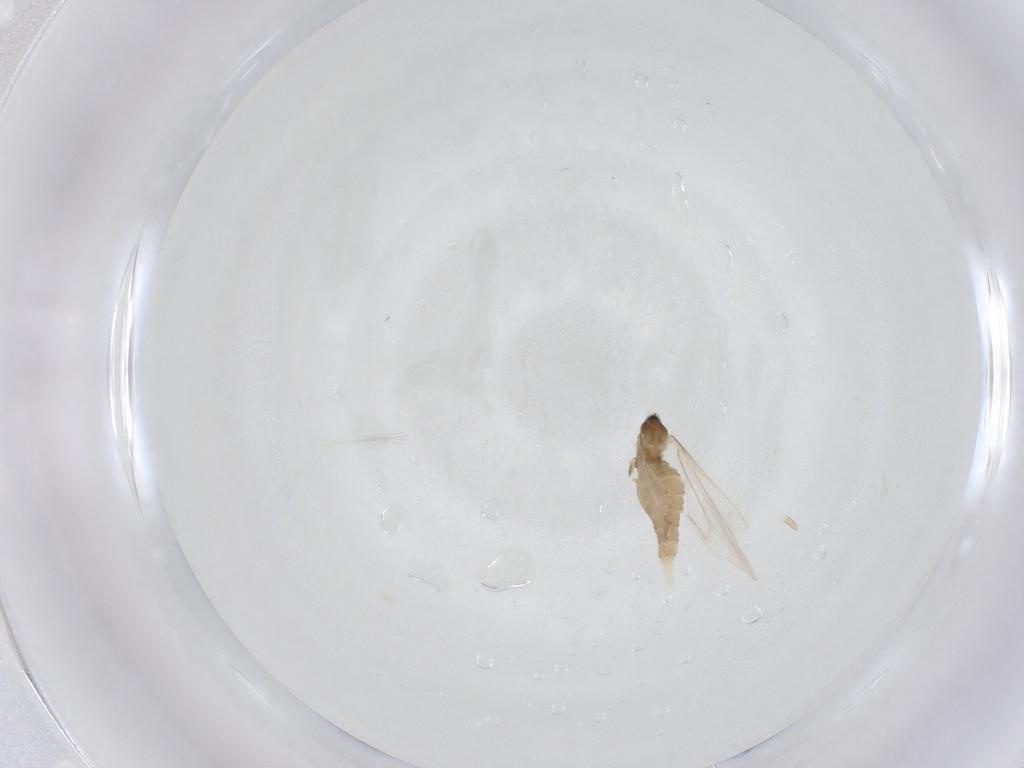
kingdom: Animalia
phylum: Arthropoda
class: Insecta
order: Diptera
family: Cecidomyiidae
